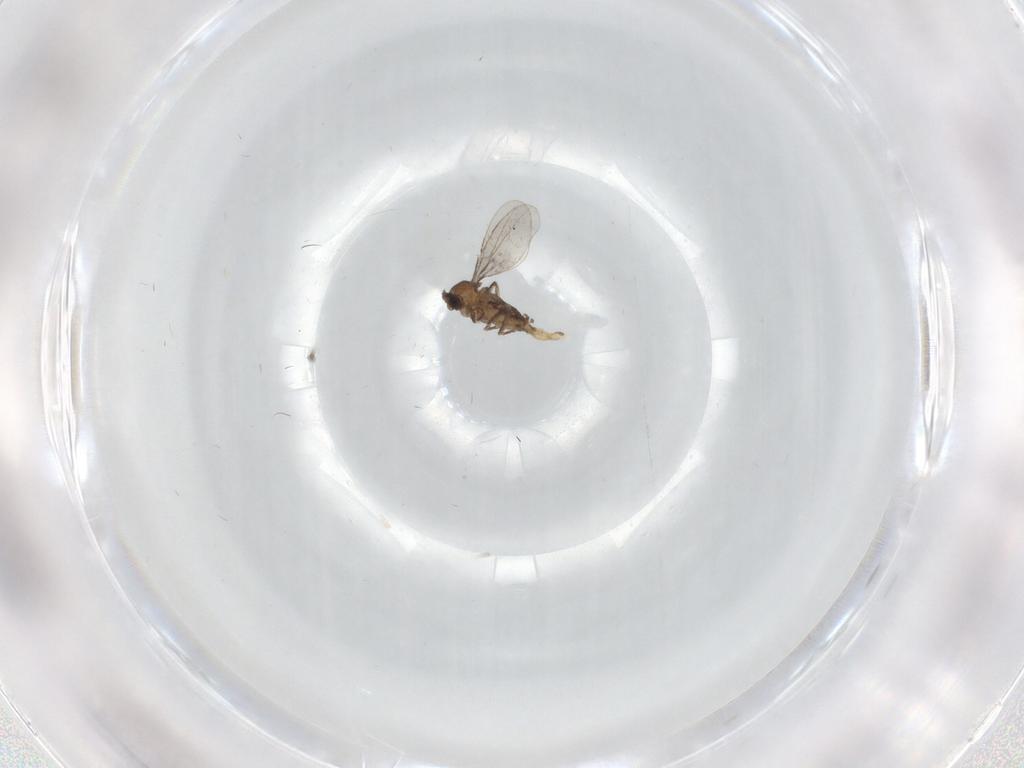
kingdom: Animalia
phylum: Arthropoda
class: Insecta
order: Diptera
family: Cecidomyiidae
